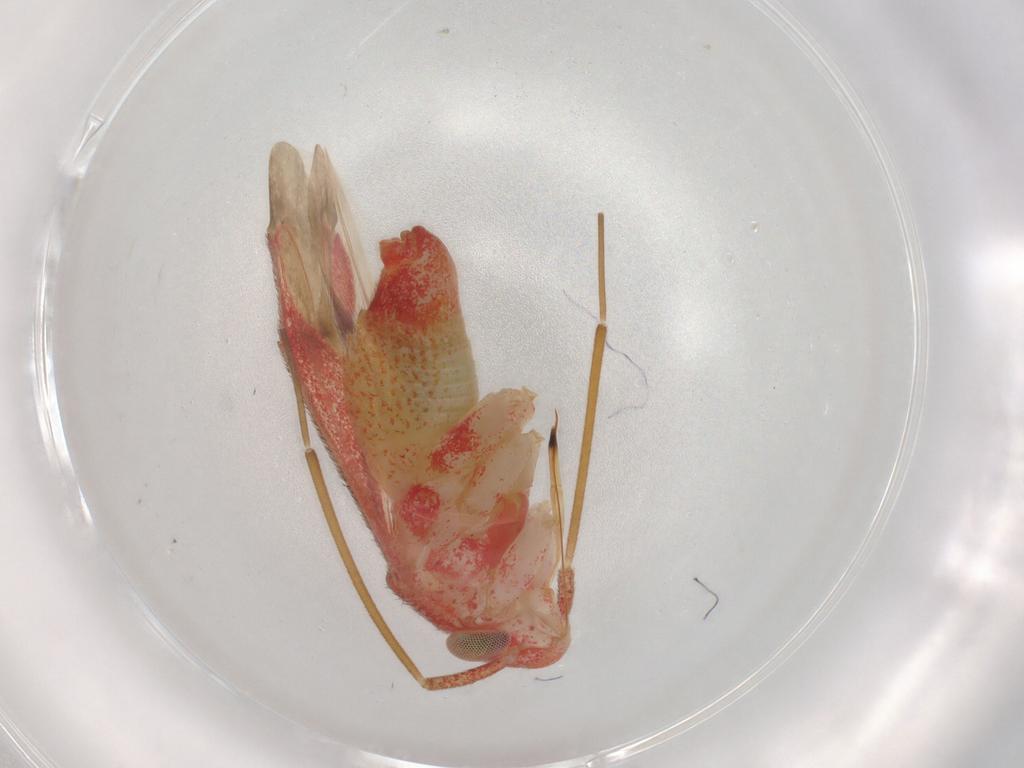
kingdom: Animalia
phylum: Arthropoda
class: Insecta
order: Hemiptera
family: Miridae
